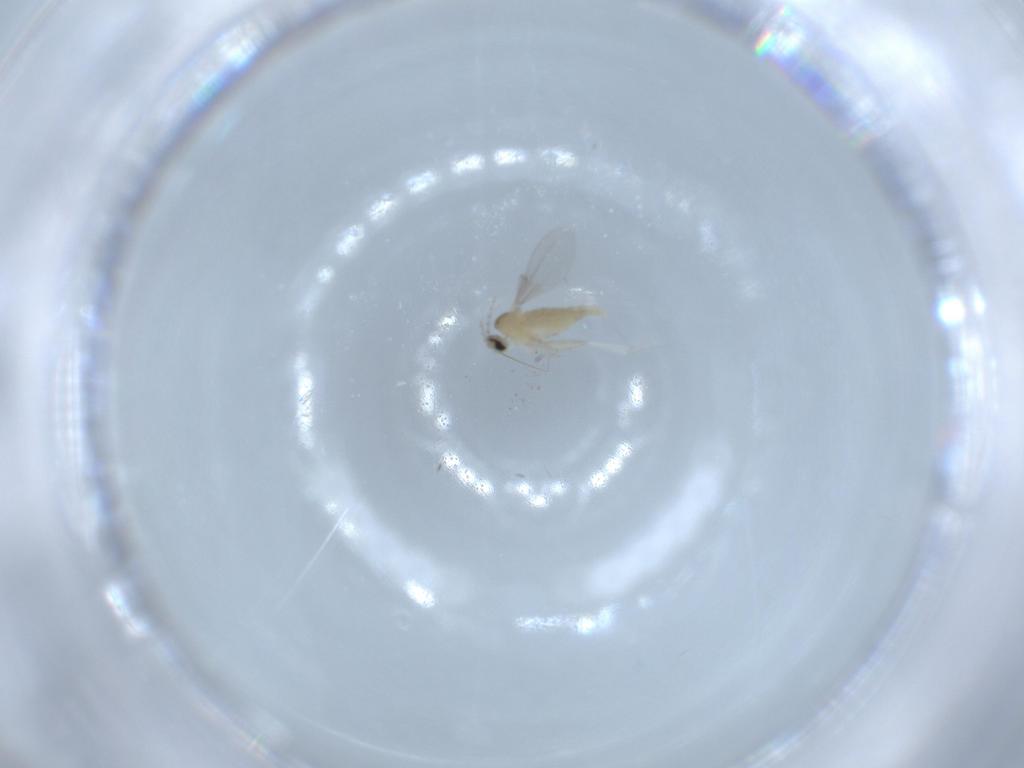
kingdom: Animalia
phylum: Arthropoda
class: Insecta
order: Diptera
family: Cecidomyiidae
